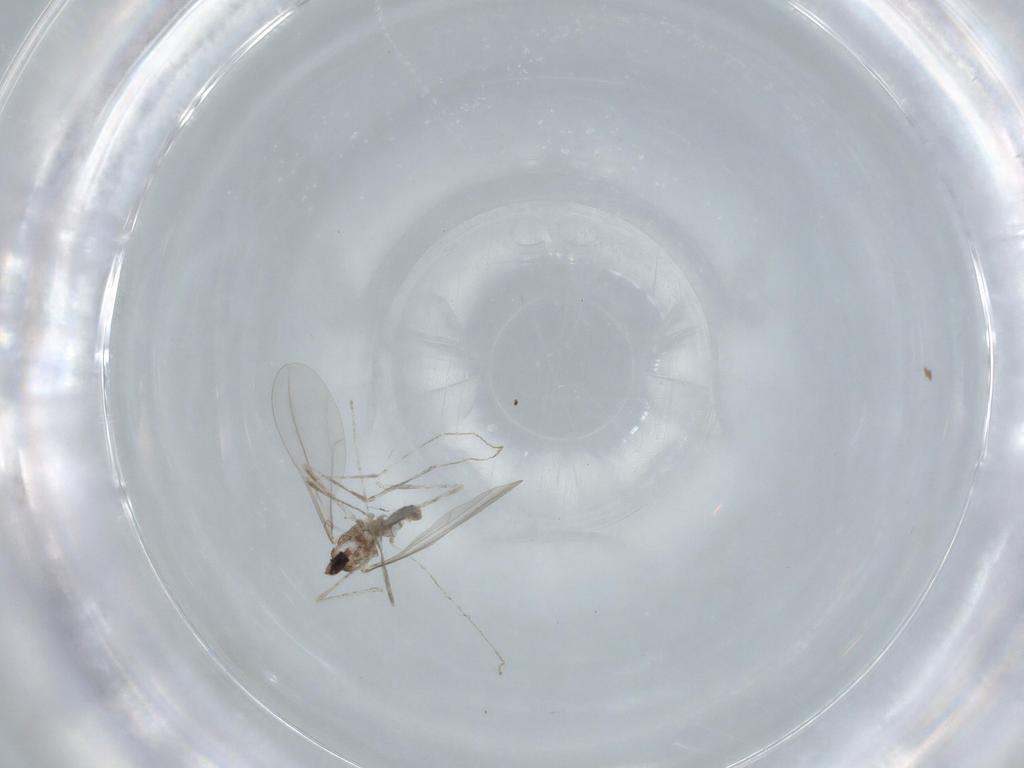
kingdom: Animalia
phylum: Arthropoda
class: Insecta
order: Diptera
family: Psychodidae
